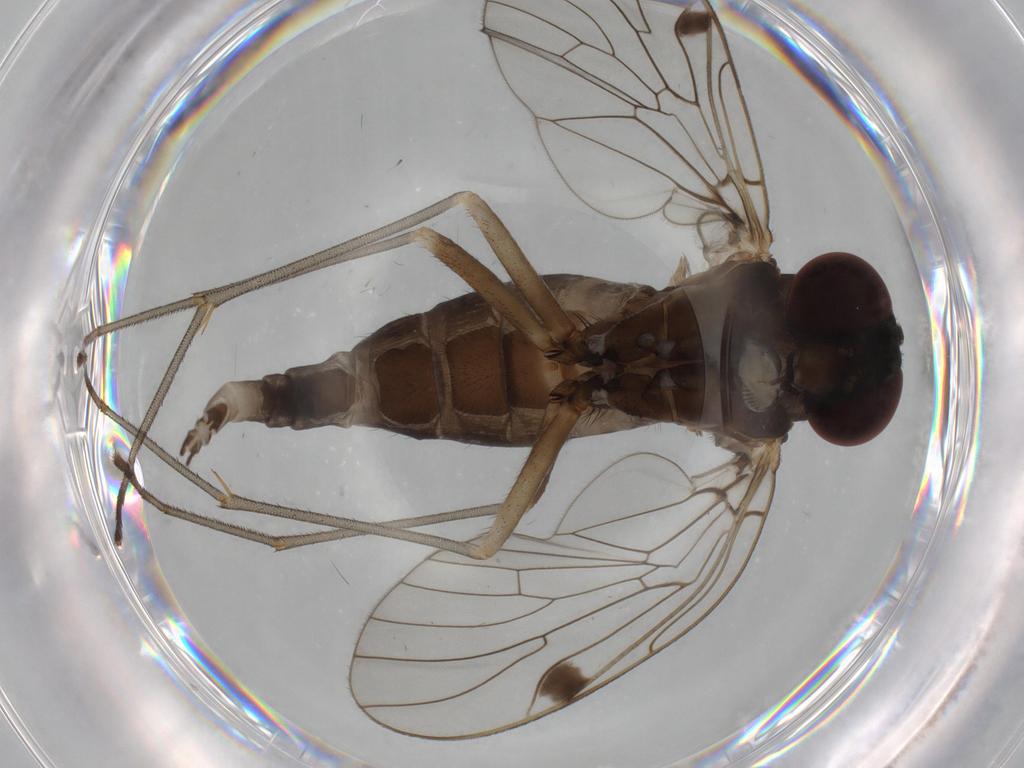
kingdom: Animalia
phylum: Arthropoda
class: Insecta
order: Diptera
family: Phoridae
